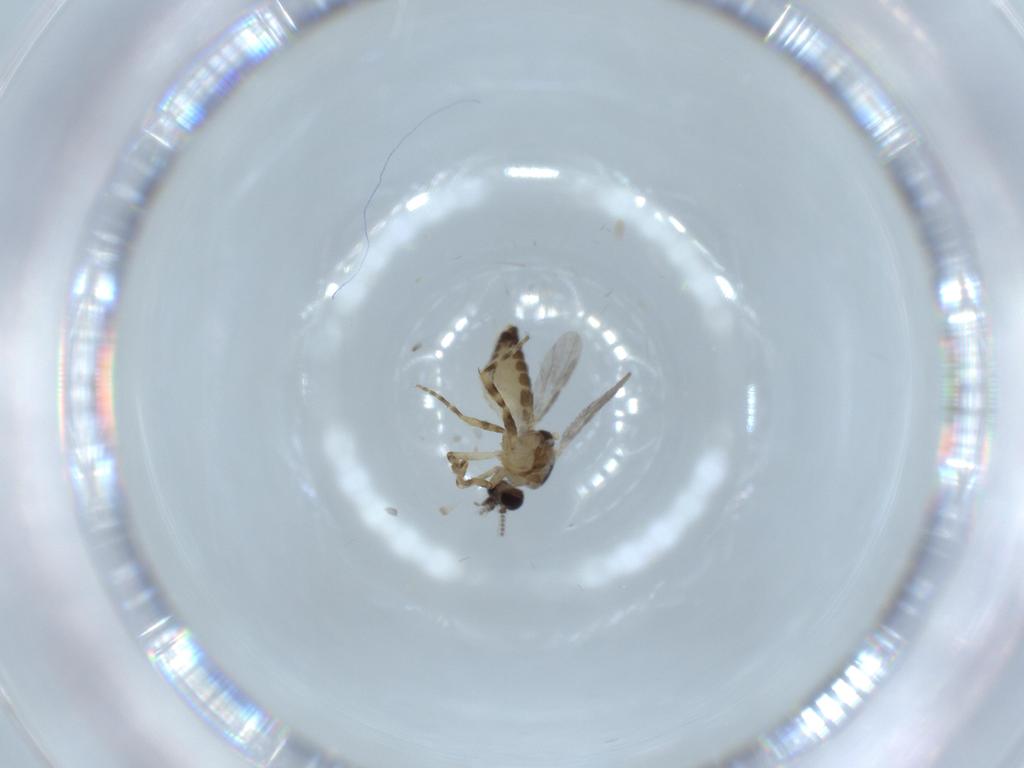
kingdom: Animalia
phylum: Arthropoda
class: Insecta
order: Diptera
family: Ceratopogonidae
